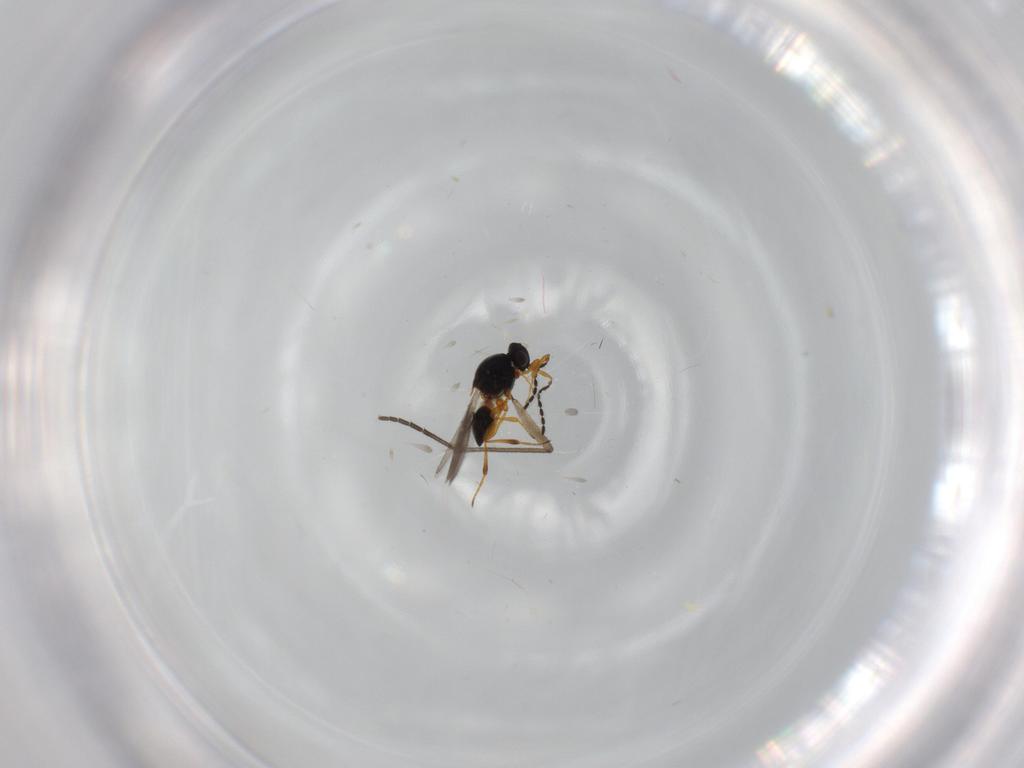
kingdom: Animalia
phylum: Arthropoda
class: Insecta
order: Hymenoptera
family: Platygastridae
